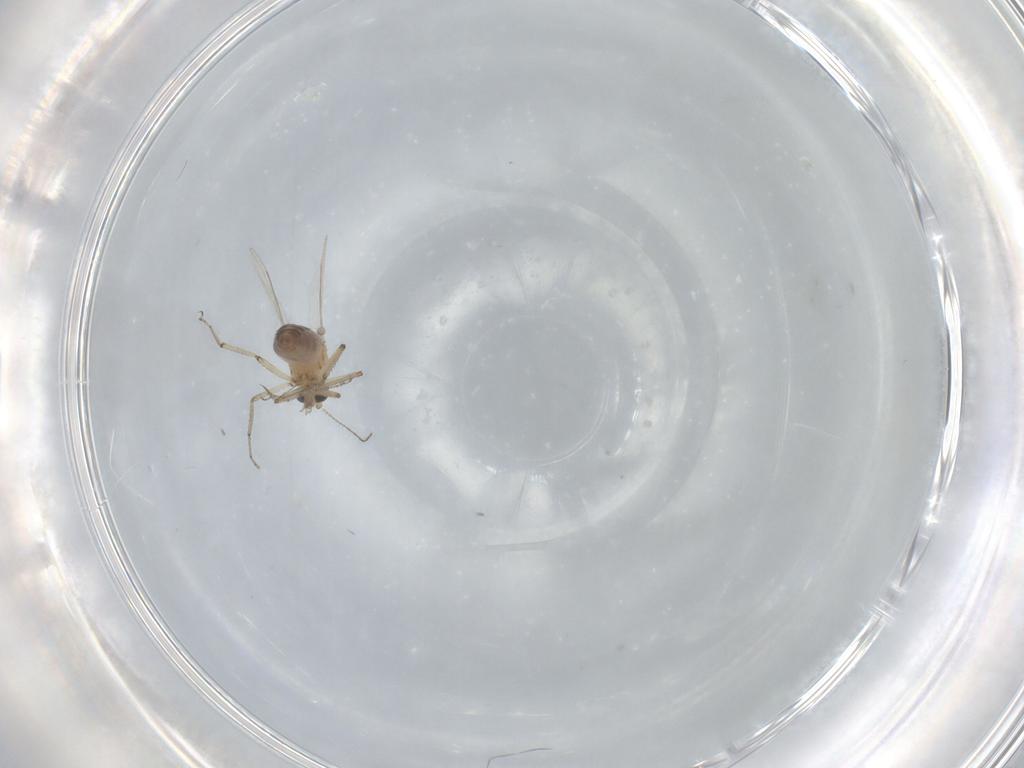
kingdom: Animalia
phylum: Arthropoda
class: Insecta
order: Diptera
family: Ceratopogonidae
